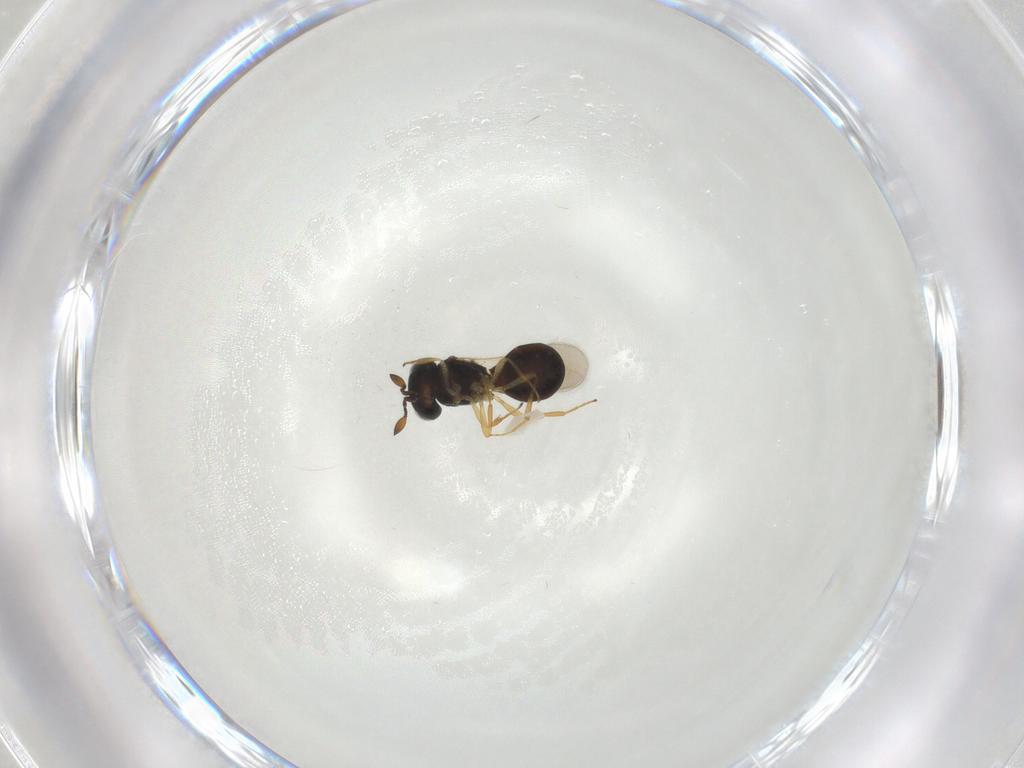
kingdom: Animalia
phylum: Arthropoda
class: Insecta
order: Hymenoptera
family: Scelionidae
